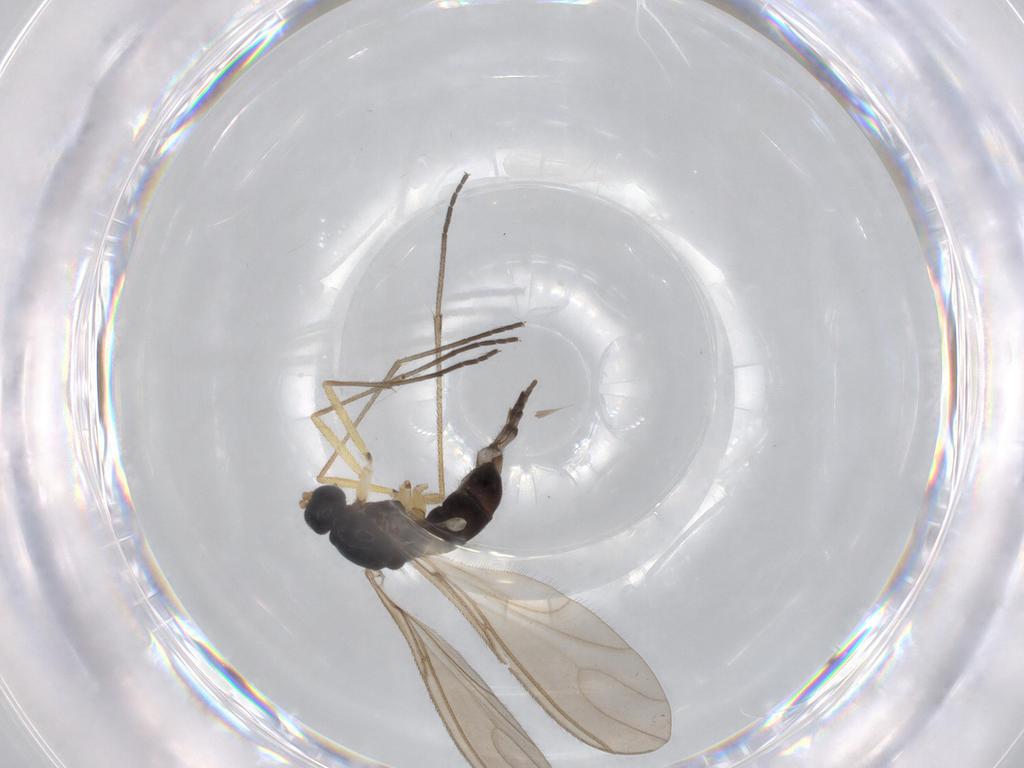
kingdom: Animalia
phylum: Arthropoda
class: Insecta
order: Diptera
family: Sciaridae
